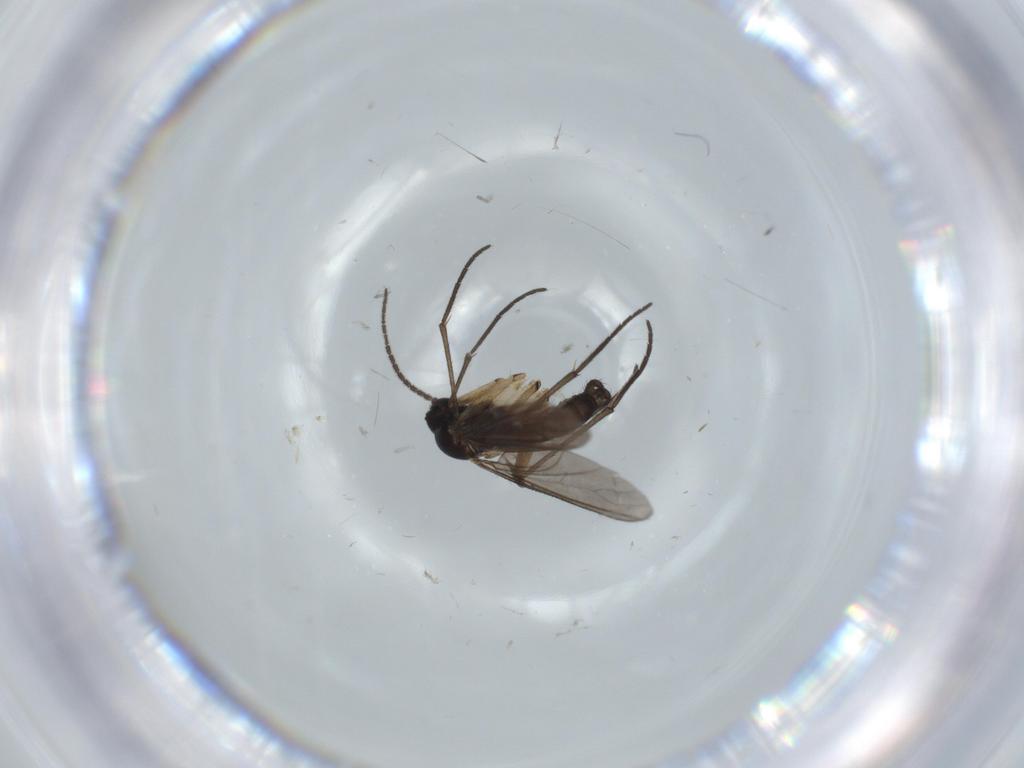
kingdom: Animalia
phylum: Arthropoda
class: Insecta
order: Diptera
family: Sciaridae
